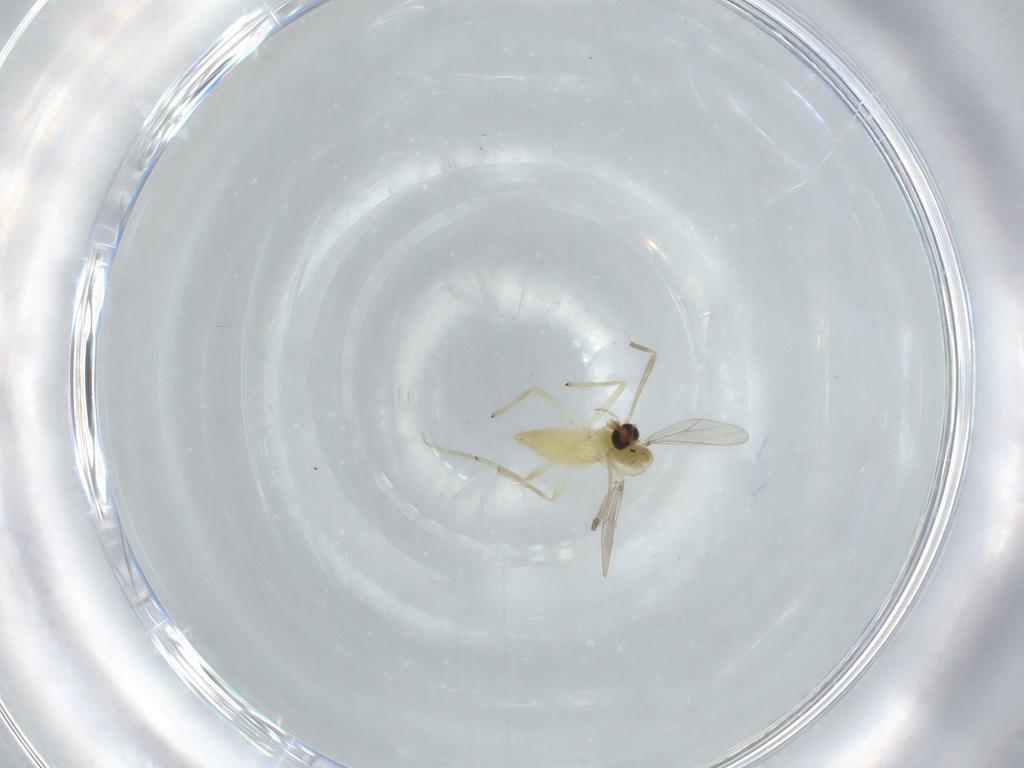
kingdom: Animalia
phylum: Arthropoda
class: Insecta
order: Diptera
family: Chironomidae
